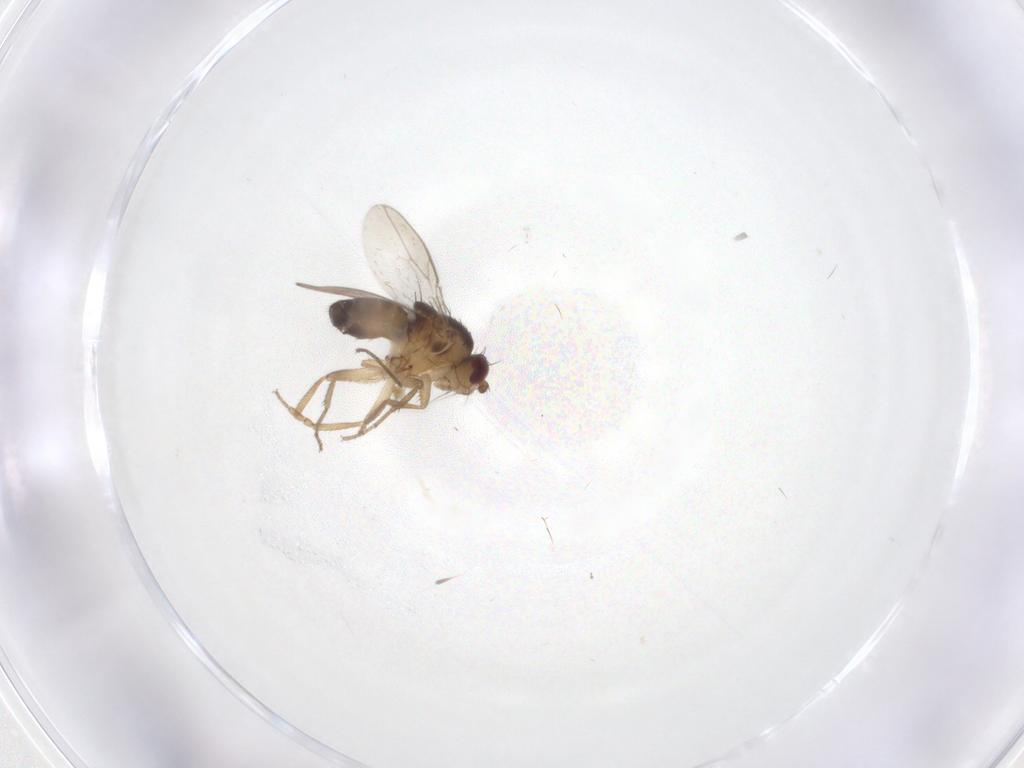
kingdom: Animalia
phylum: Arthropoda
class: Insecta
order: Diptera
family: Sphaeroceridae
